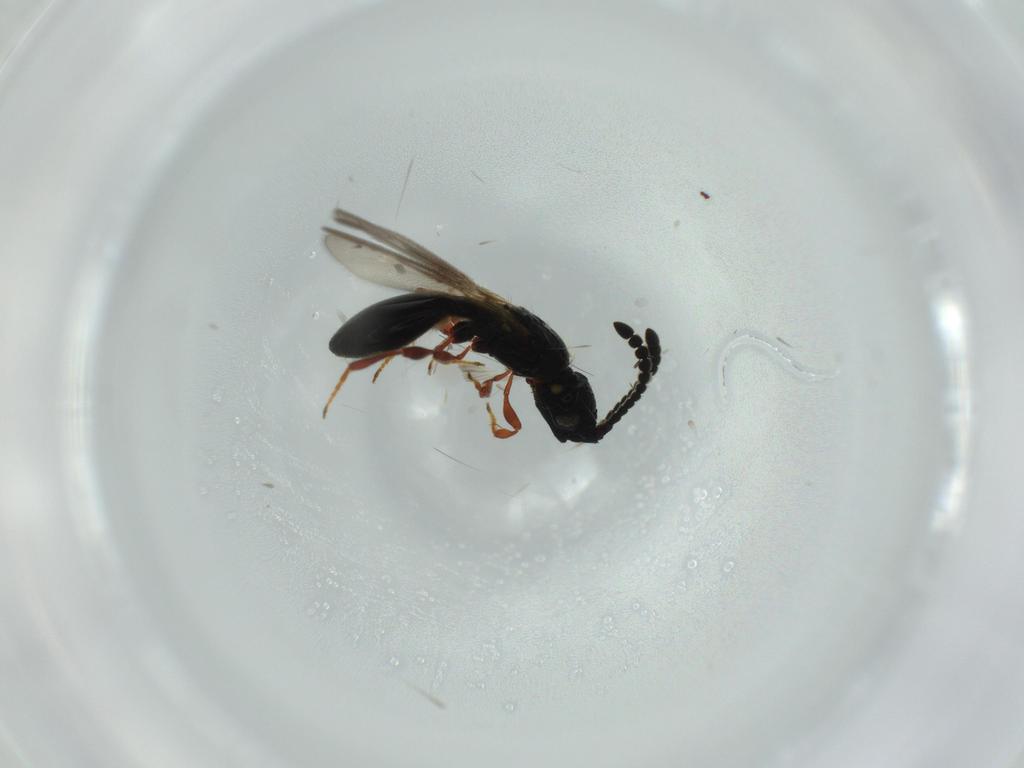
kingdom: Animalia
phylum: Arthropoda
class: Insecta
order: Hymenoptera
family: Diapriidae
